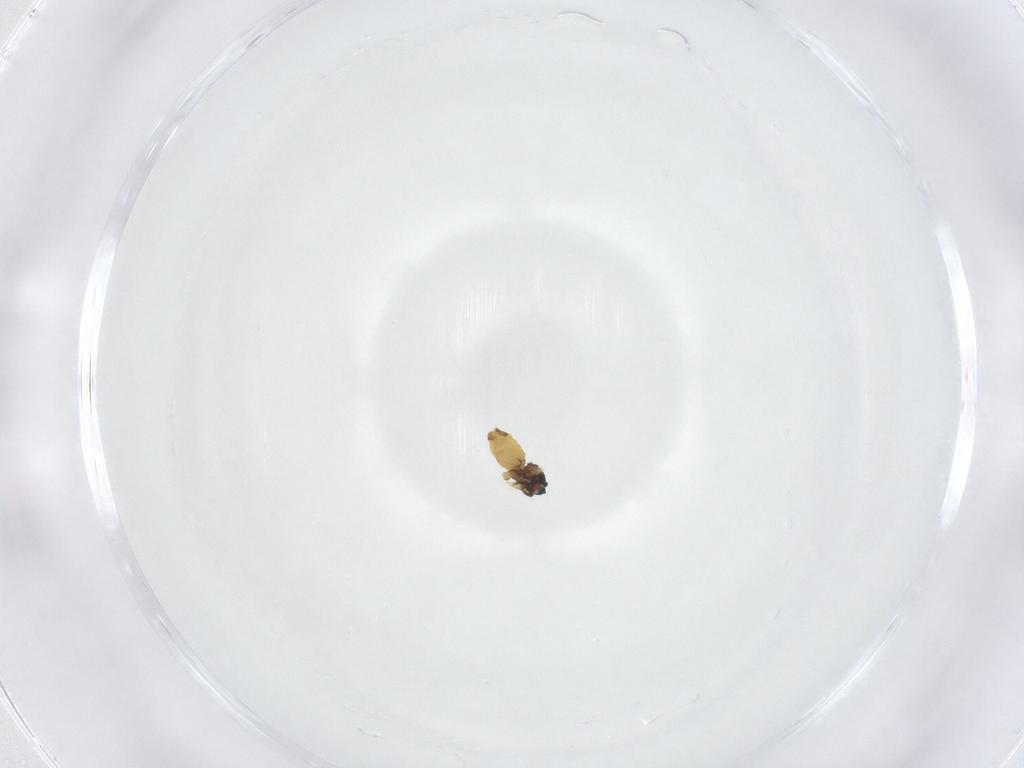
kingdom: Animalia
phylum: Arthropoda
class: Insecta
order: Hemiptera
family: Aleyrodidae
